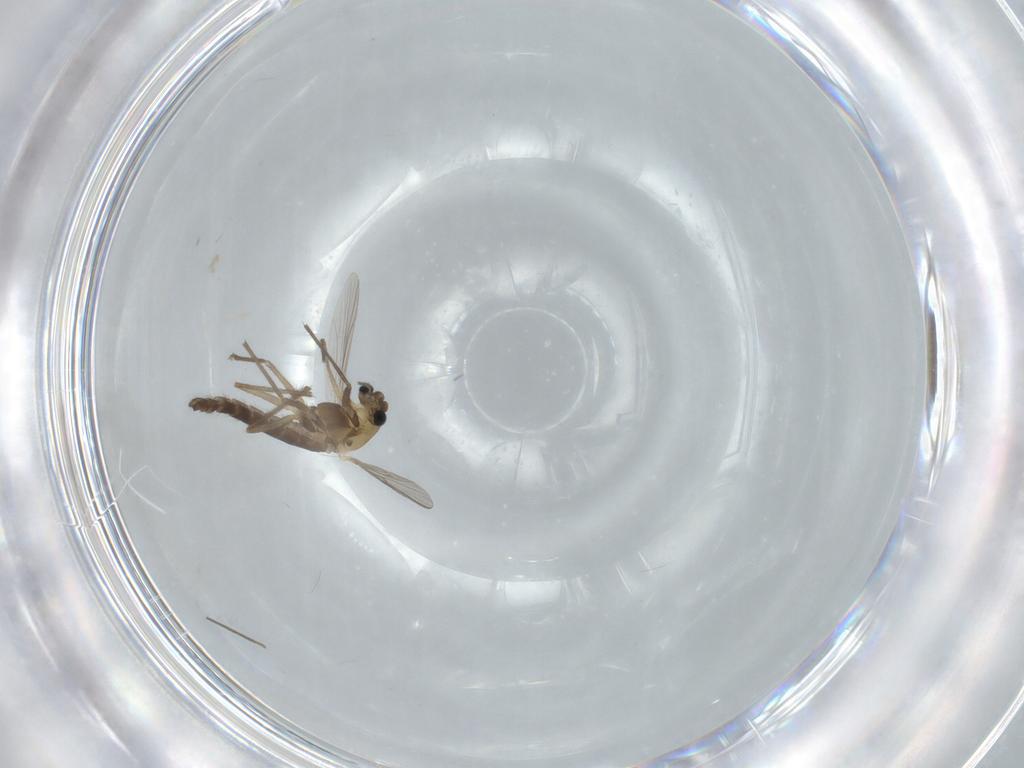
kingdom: Animalia
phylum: Arthropoda
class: Insecta
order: Diptera
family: Chironomidae
